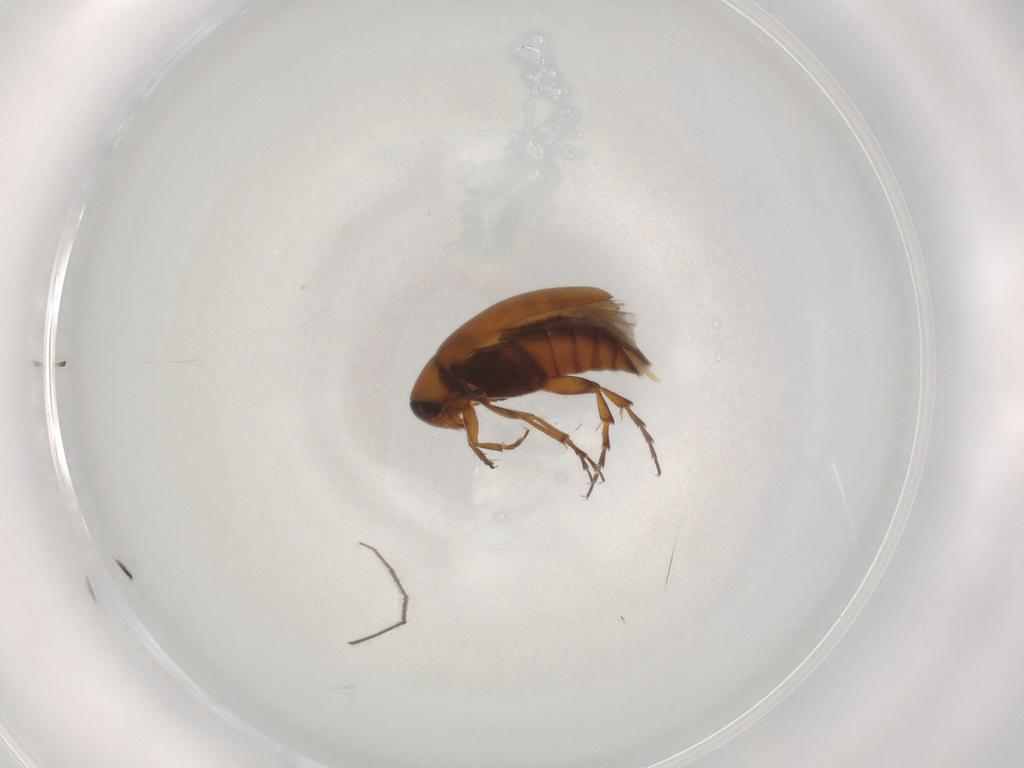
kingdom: Animalia
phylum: Arthropoda
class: Insecta
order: Coleoptera
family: Scraptiidae
